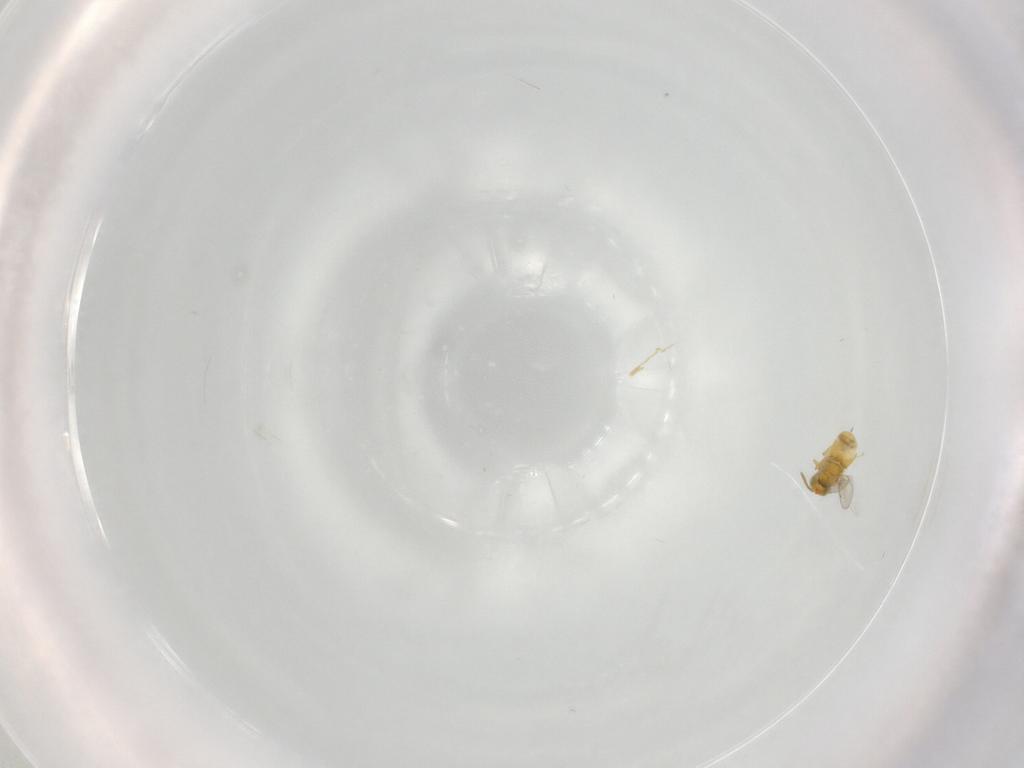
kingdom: Animalia
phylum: Arthropoda
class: Insecta
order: Hymenoptera
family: Aphelinidae
